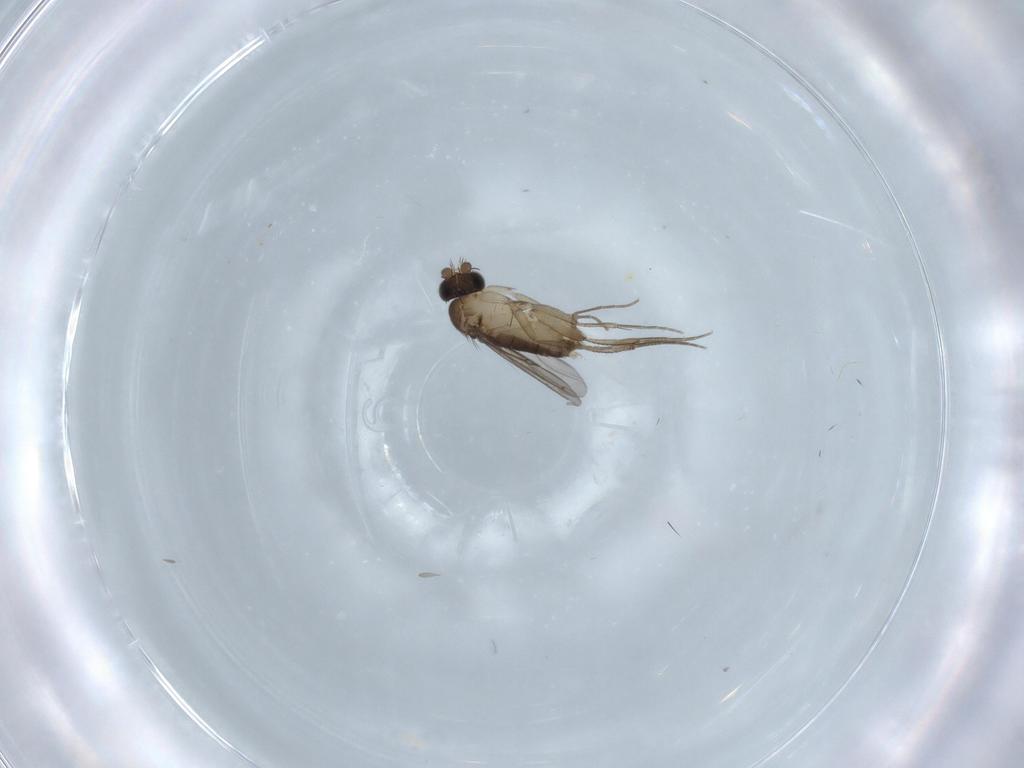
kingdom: Animalia
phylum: Arthropoda
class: Insecta
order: Diptera
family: Phoridae
